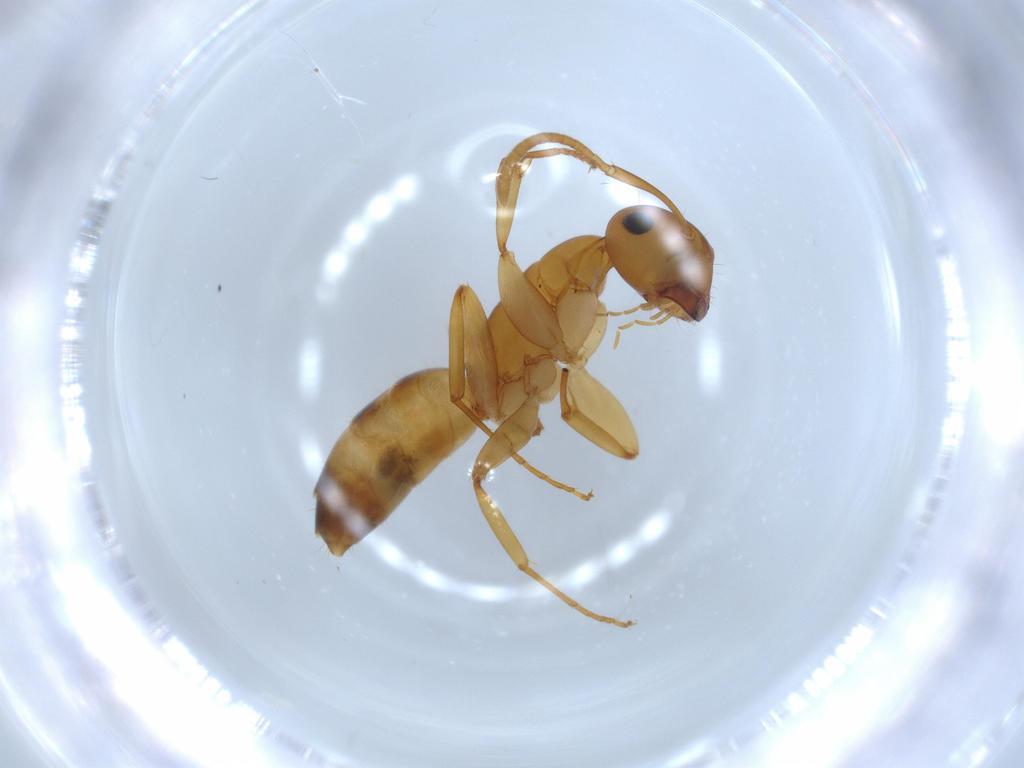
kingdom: Animalia
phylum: Arthropoda
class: Insecta
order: Hymenoptera
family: Formicidae
